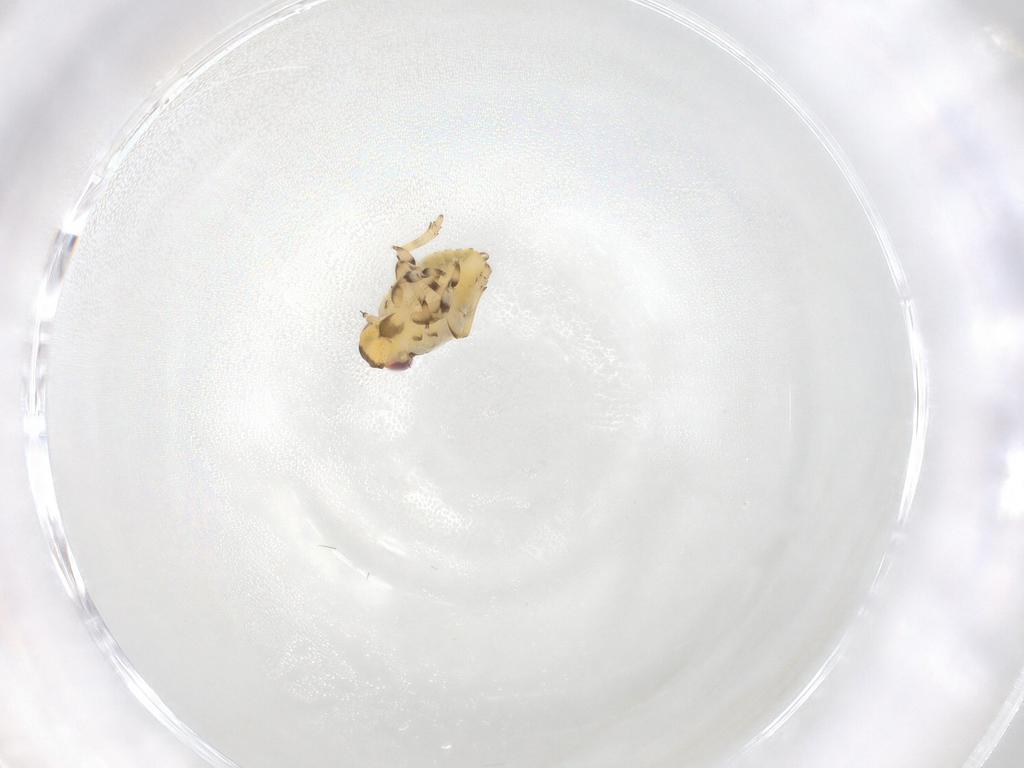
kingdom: Animalia
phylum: Arthropoda
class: Insecta
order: Hemiptera
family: Issidae
